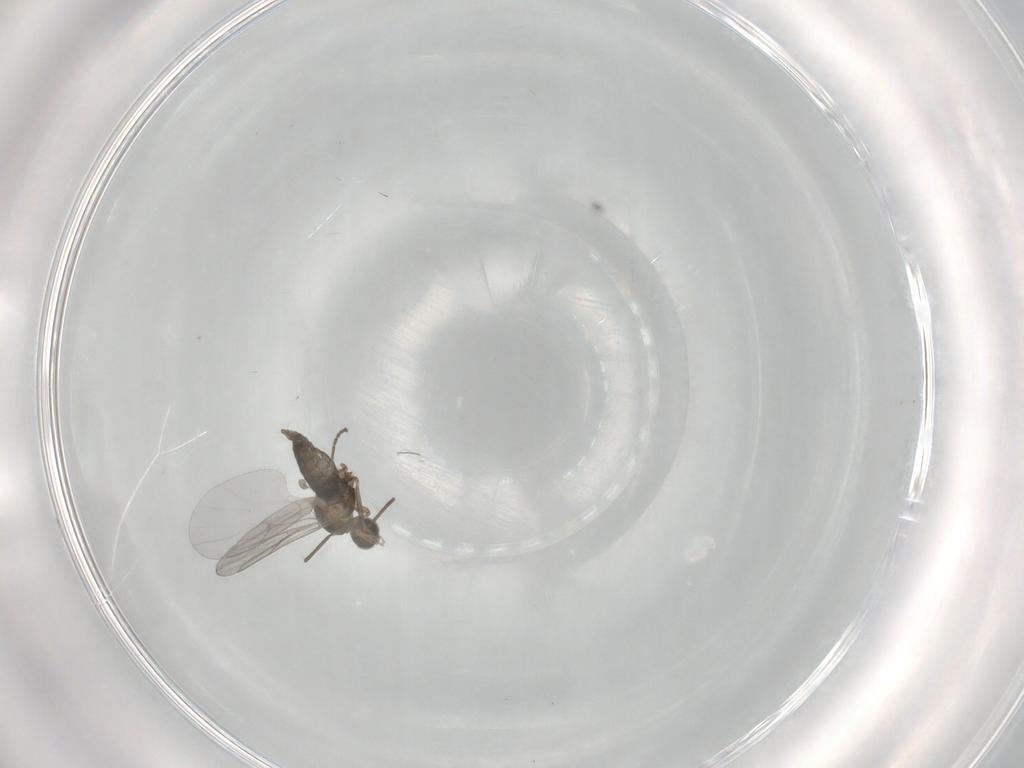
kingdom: Animalia
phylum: Arthropoda
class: Insecta
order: Diptera
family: Cecidomyiidae
